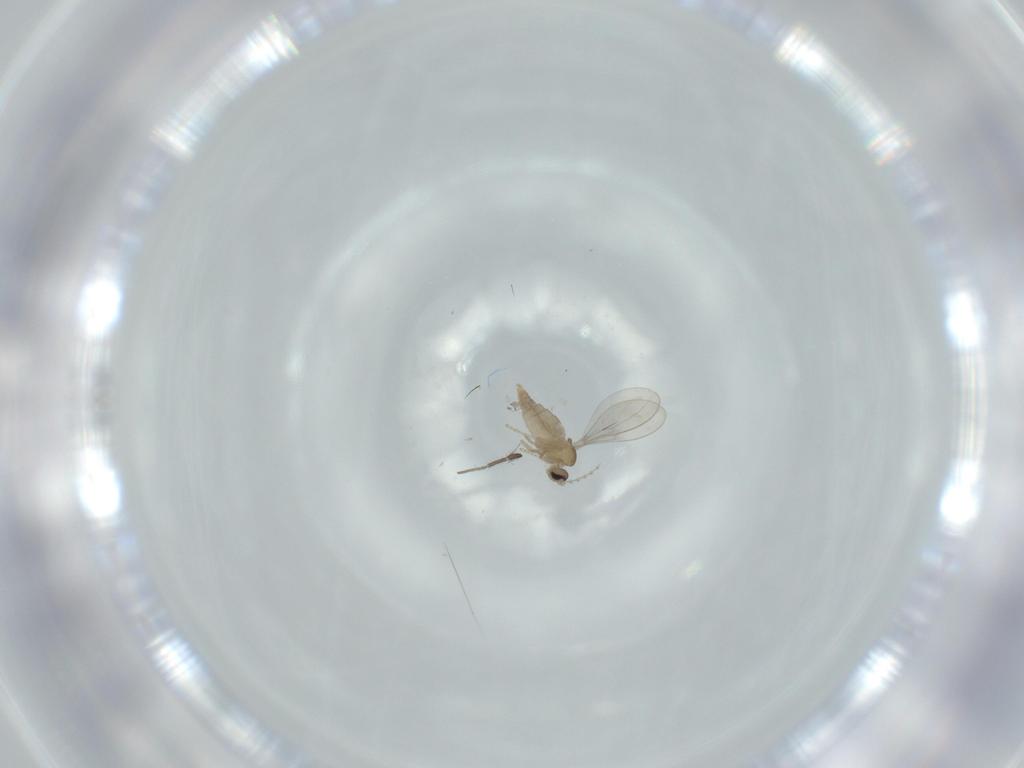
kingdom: Animalia
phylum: Arthropoda
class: Insecta
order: Diptera
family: Cecidomyiidae
